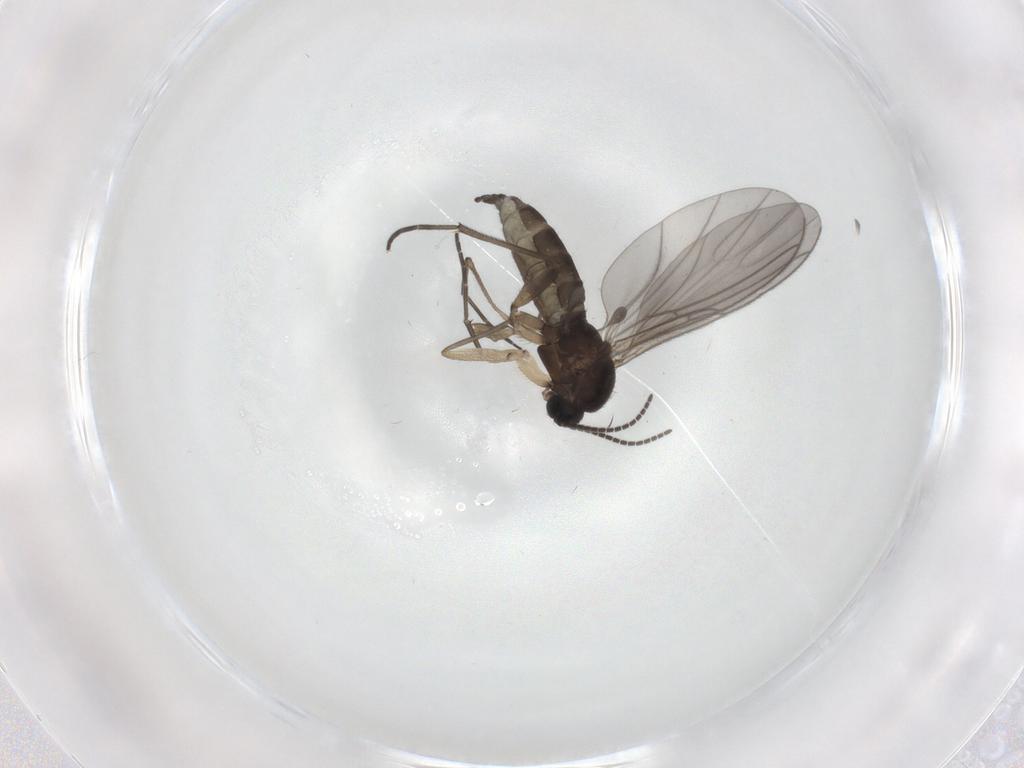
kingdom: Animalia
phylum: Arthropoda
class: Insecta
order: Diptera
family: Sciaridae
